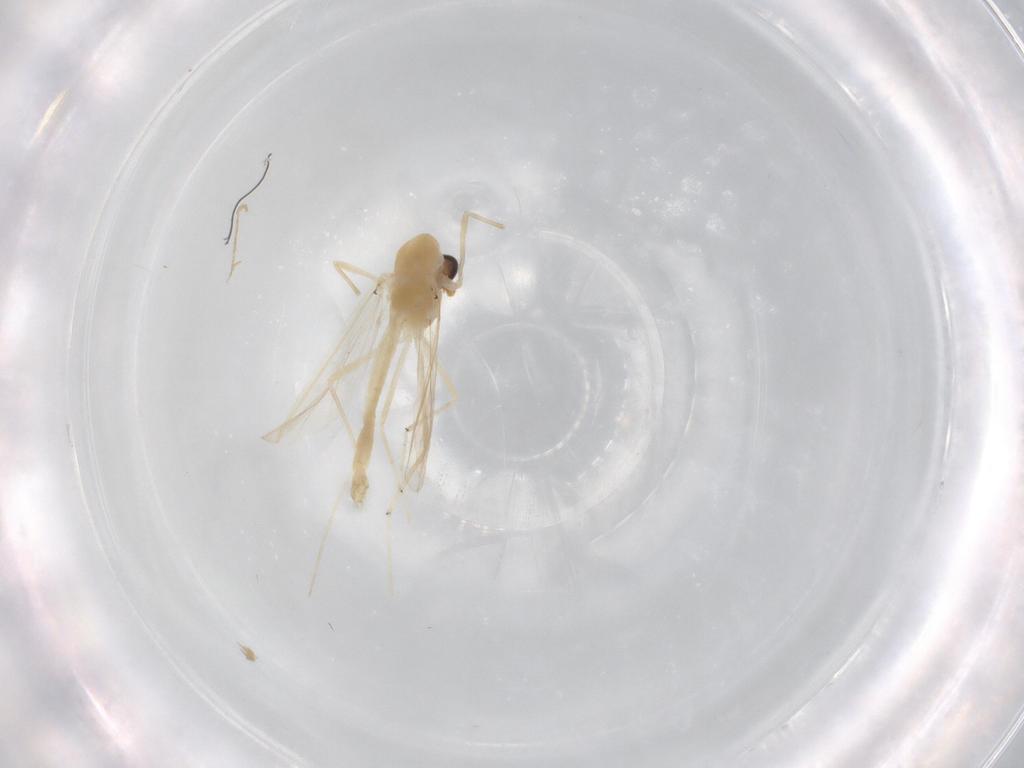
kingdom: Animalia
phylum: Arthropoda
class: Insecta
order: Diptera
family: Chironomidae
